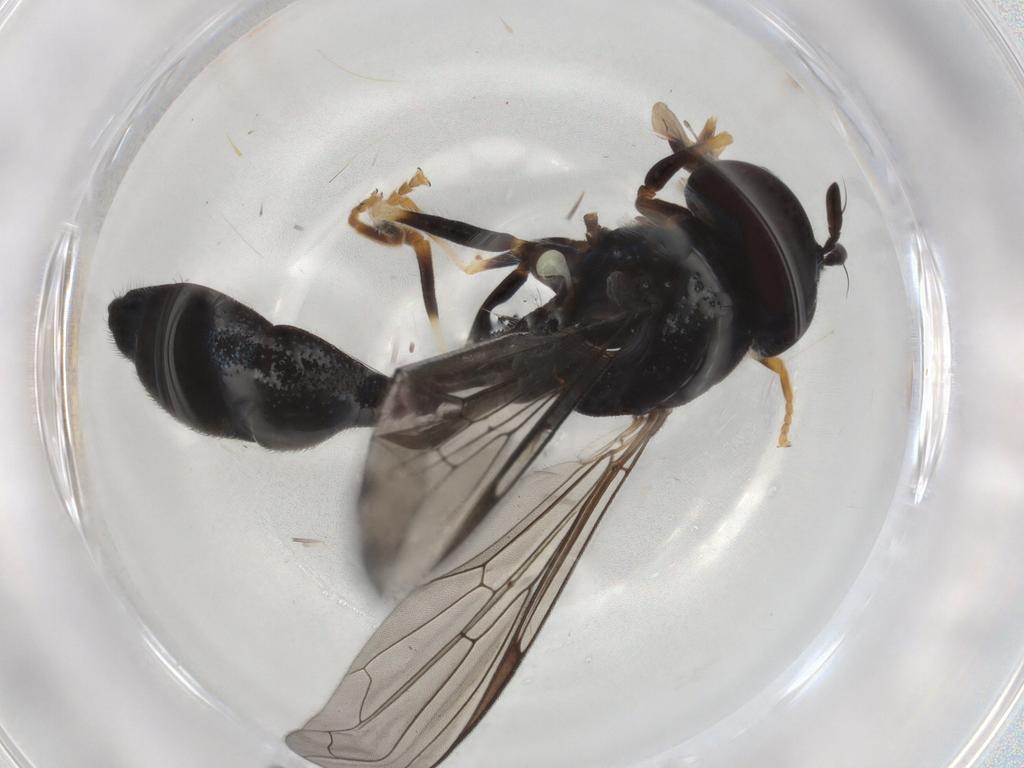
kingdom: Animalia
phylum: Arthropoda
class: Insecta
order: Diptera
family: Syrphidae
